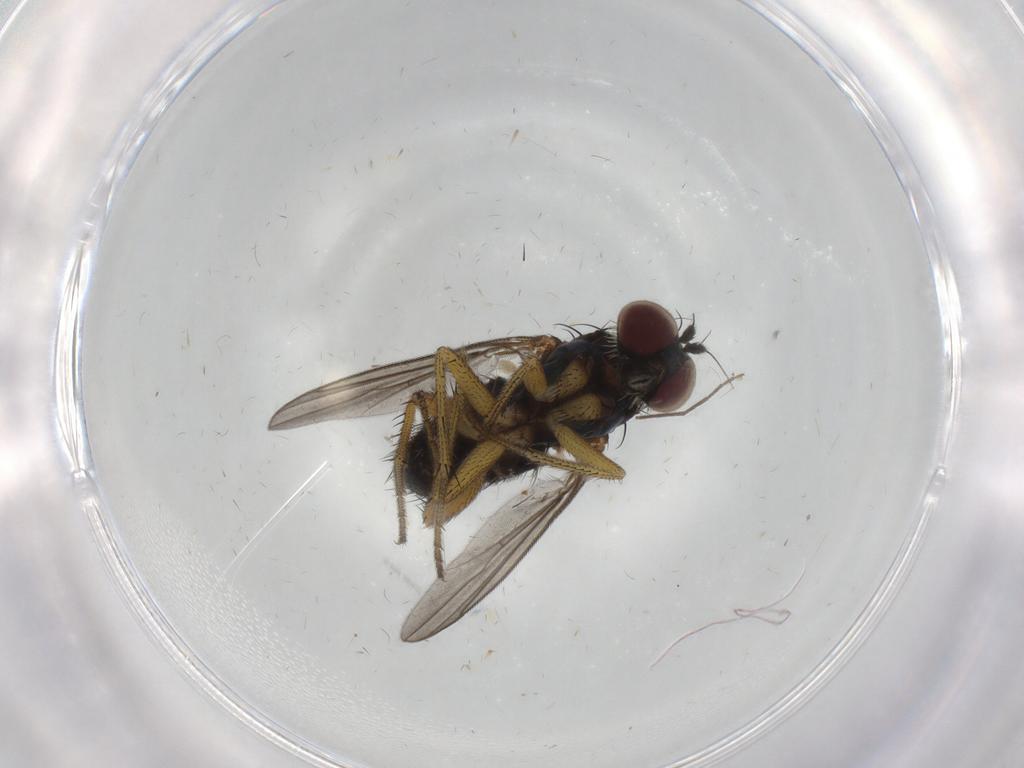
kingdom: Animalia
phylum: Arthropoda
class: Insecta
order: Diptera
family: Dolichopodidae
